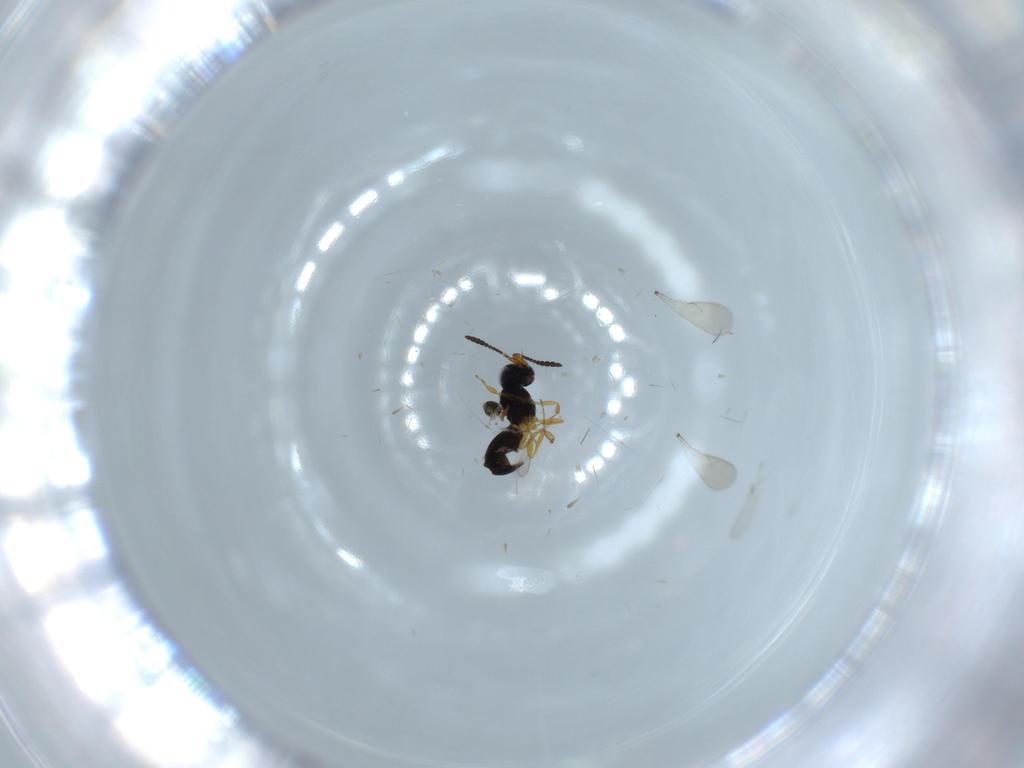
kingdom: Animalia
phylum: Arthropoda
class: Insecta
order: Hymenoptera
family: Scelionidae
